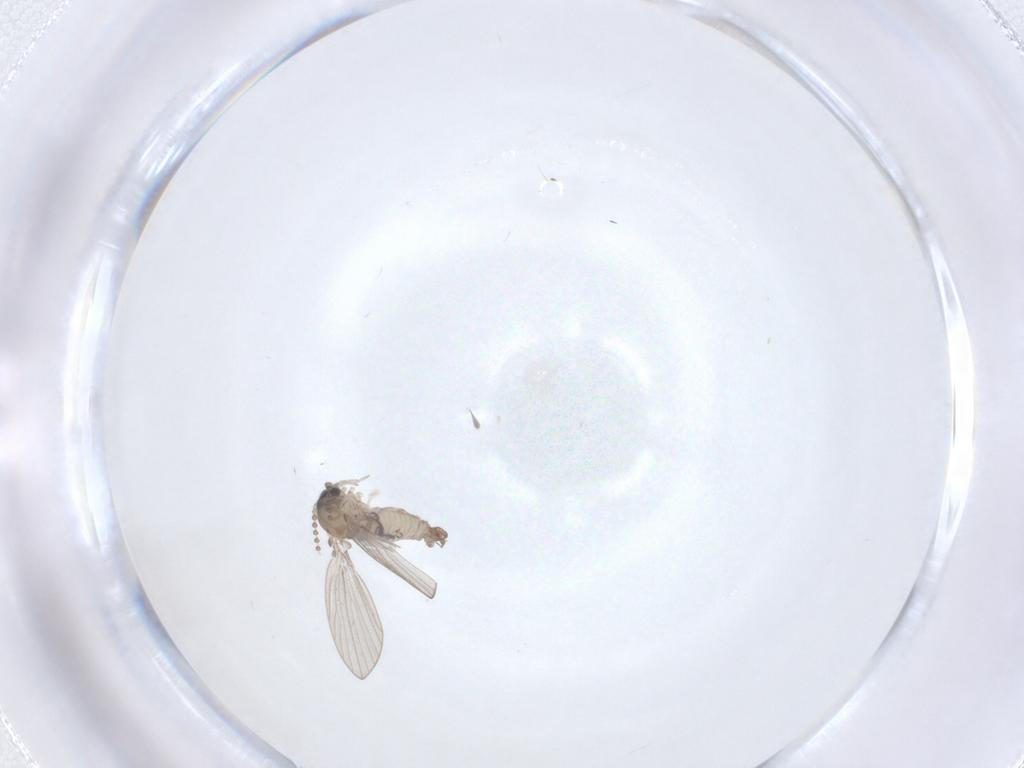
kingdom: Animalia
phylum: Arthropoda
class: Insecta
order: Diptera
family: Psychodidae
